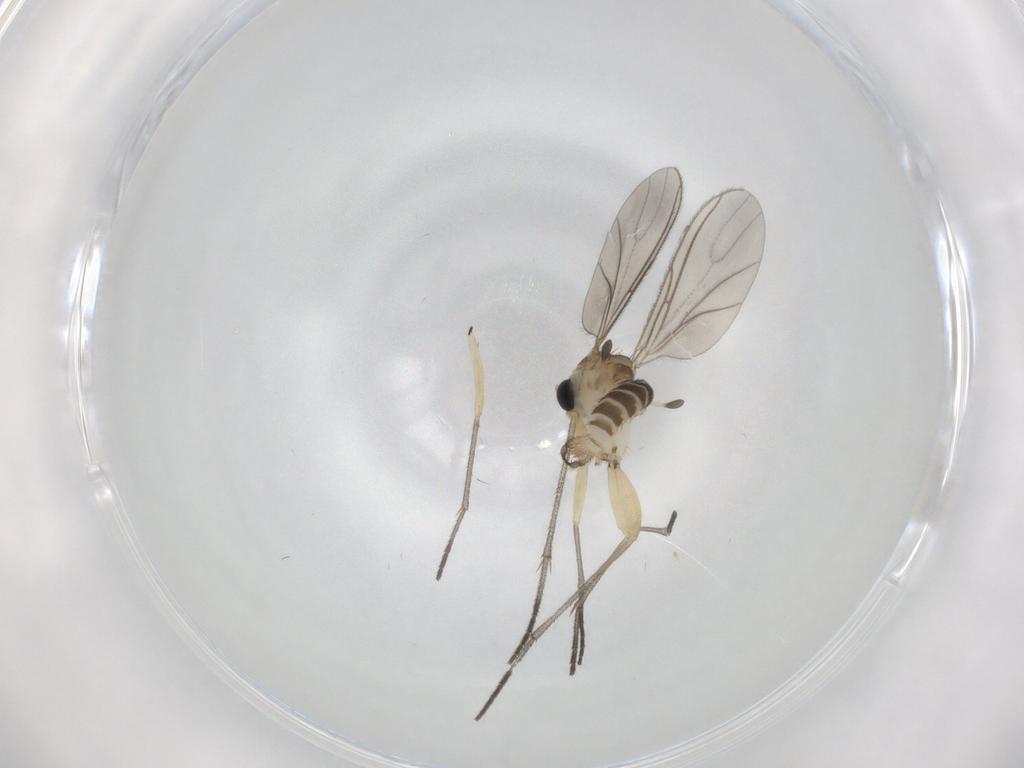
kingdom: Animalia
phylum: Arthropoda
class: Insecta
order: Diptera
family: Sciaridae
